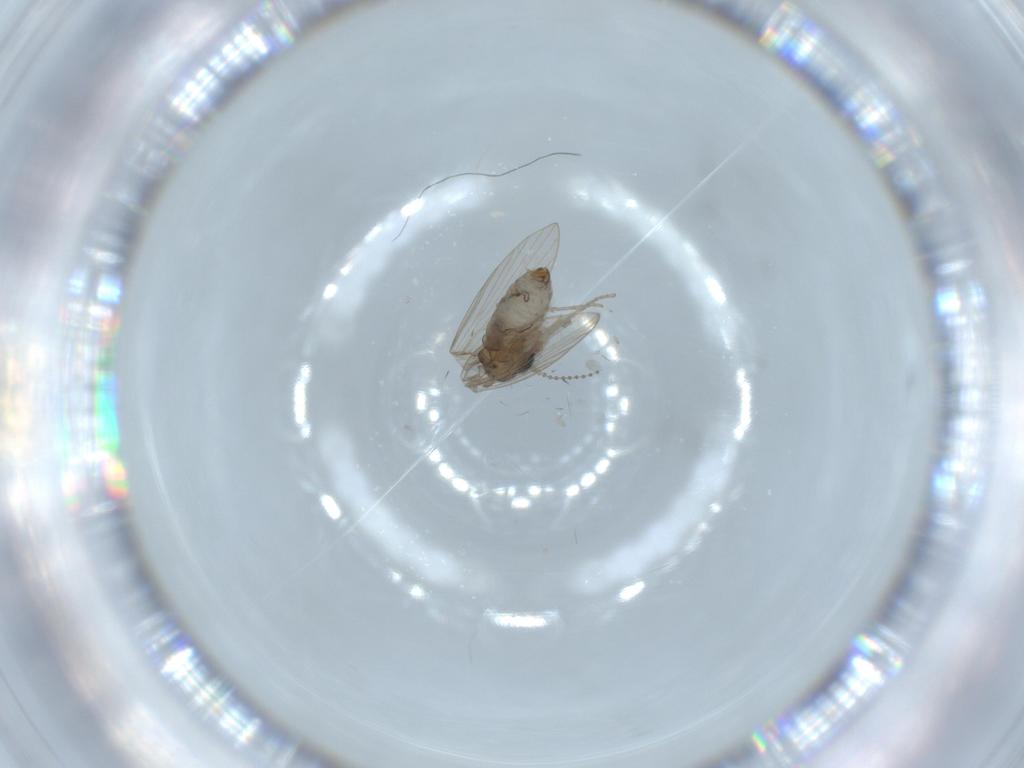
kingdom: Animalia
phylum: Arthropoda
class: Insecta
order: Diptera
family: Psychodidae
